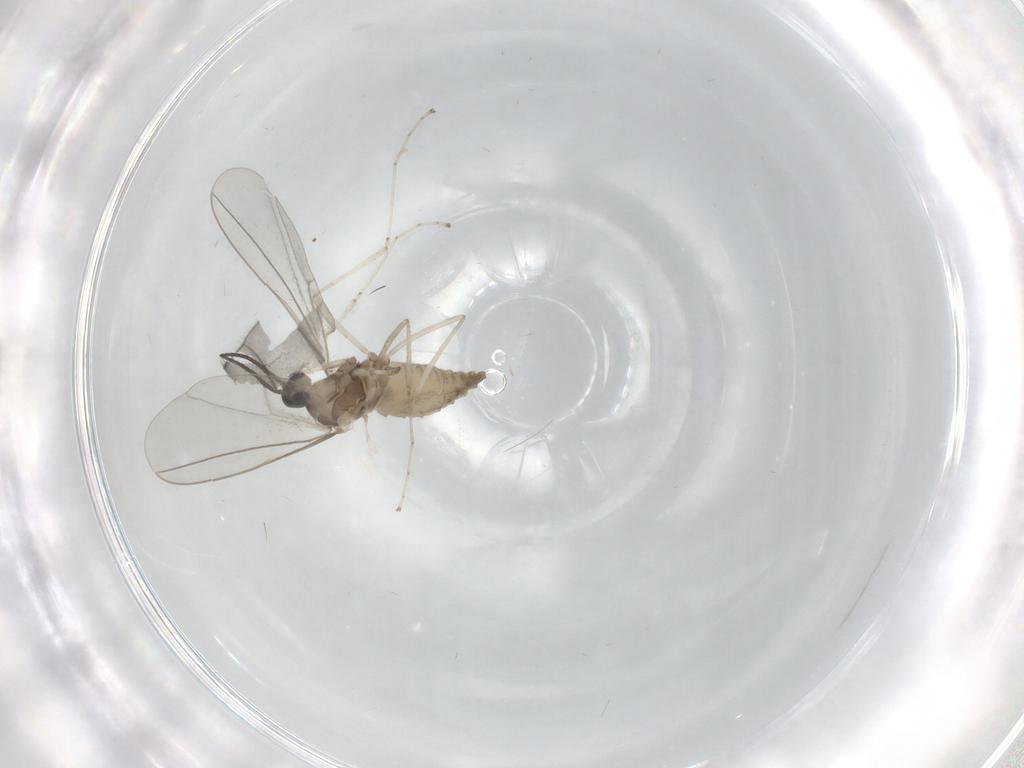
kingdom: Animalia
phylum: Arthropoda
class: Insecta
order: Diptera
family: Cecidomyiidae
